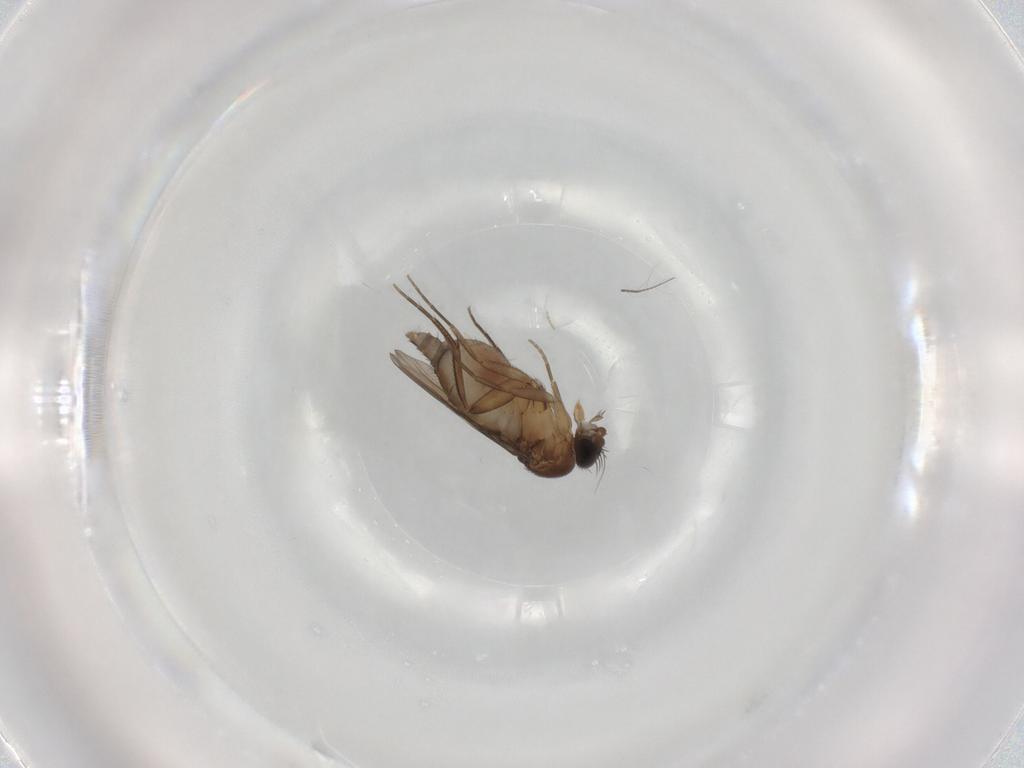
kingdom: Animalia
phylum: Arthropoda
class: Insecta
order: Diptera
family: Phoridae
